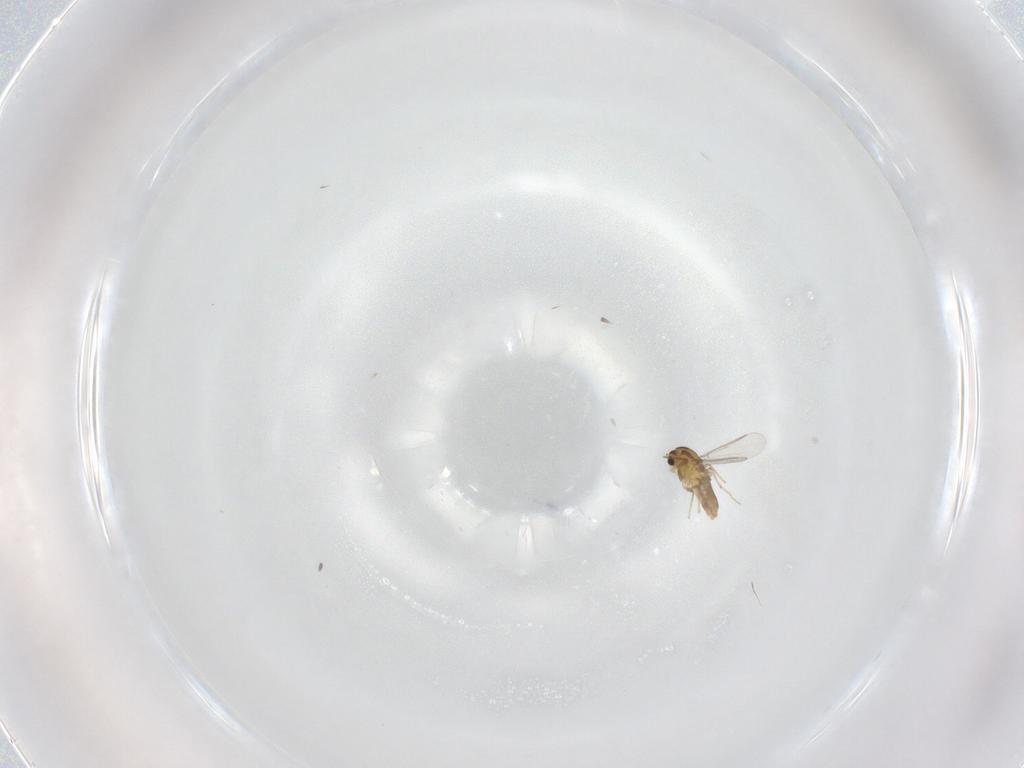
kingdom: Animalia
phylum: Arthropoda
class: Insecta
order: Diptera
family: Chironomidae
